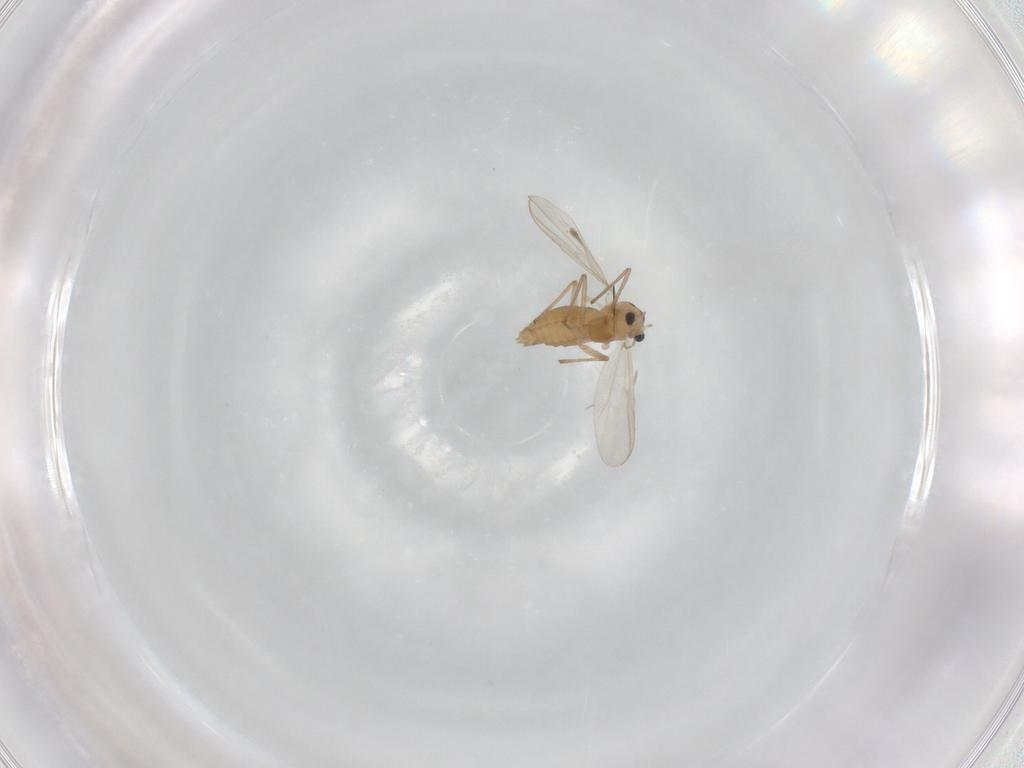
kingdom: Animalia
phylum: Arthropoda
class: Insecta
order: Diptera
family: Chironomidae
